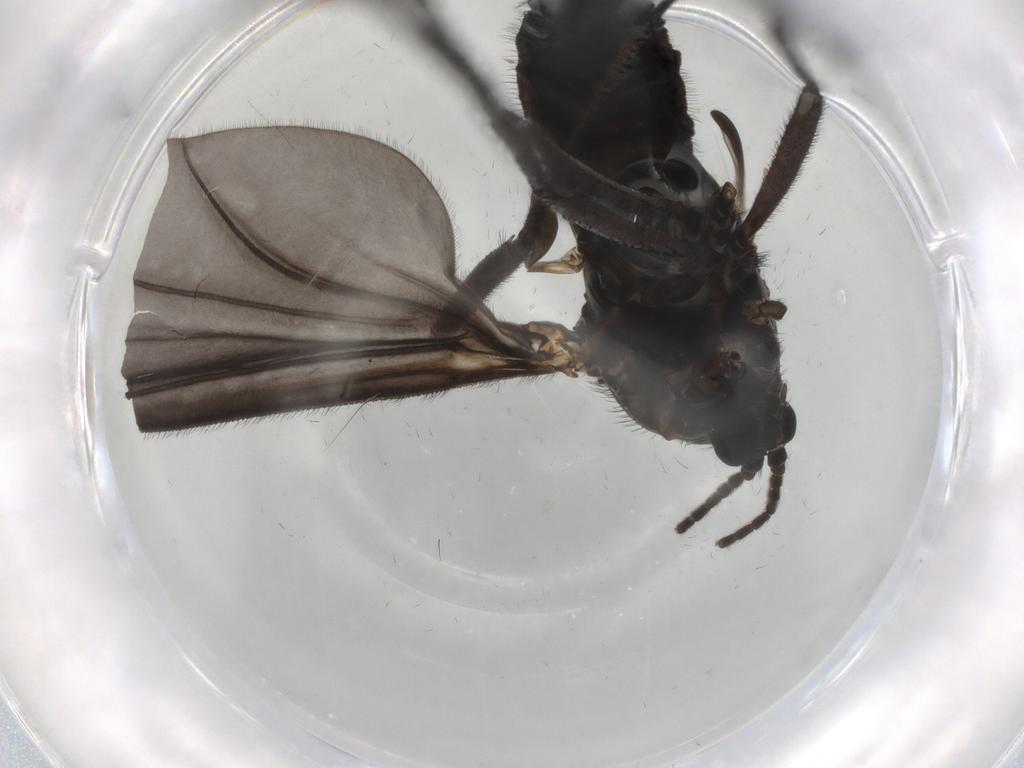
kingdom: Animalia
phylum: Arthropoda
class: Insecta
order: Diptera
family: Sciaridae
